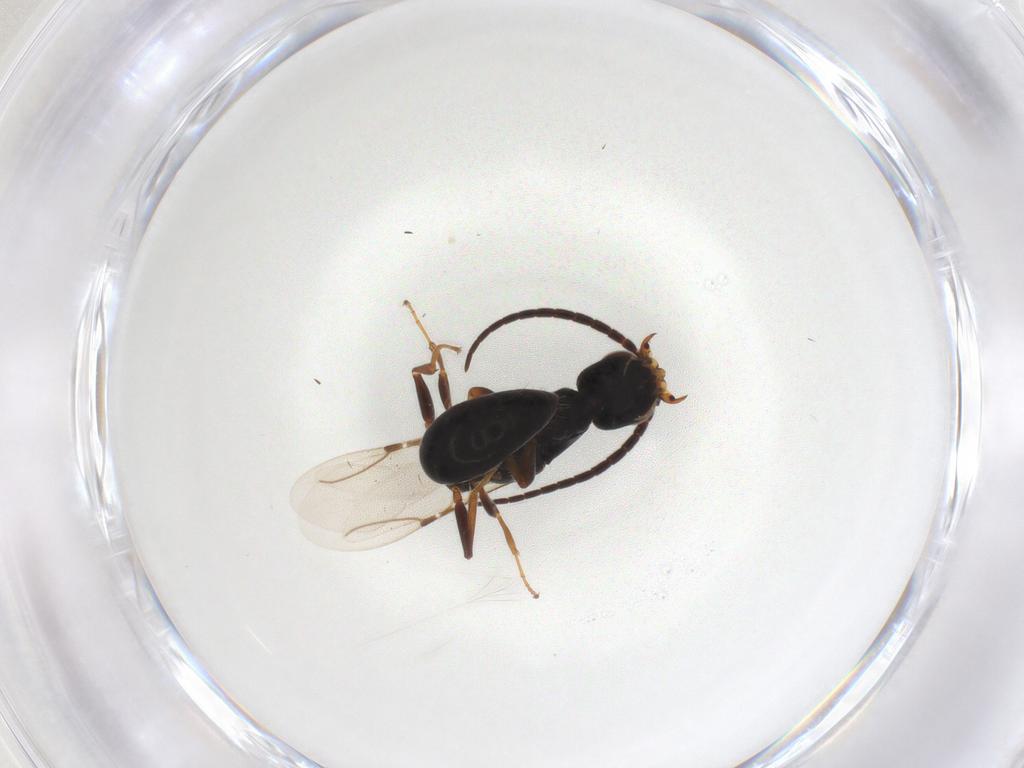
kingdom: Animalia
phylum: Arthropoda
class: Insecta
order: Hymenoptera
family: Bethylidae
